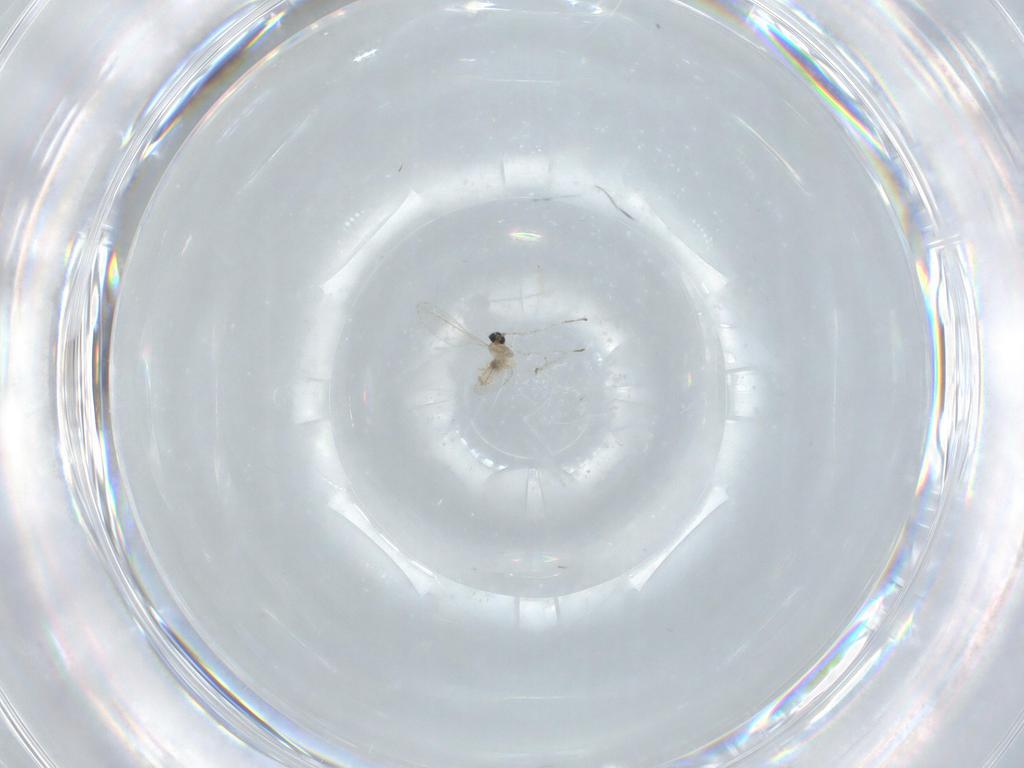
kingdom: Animalia
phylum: Arthropoda
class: Insecta
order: Diptera
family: Cecidomyiidae
